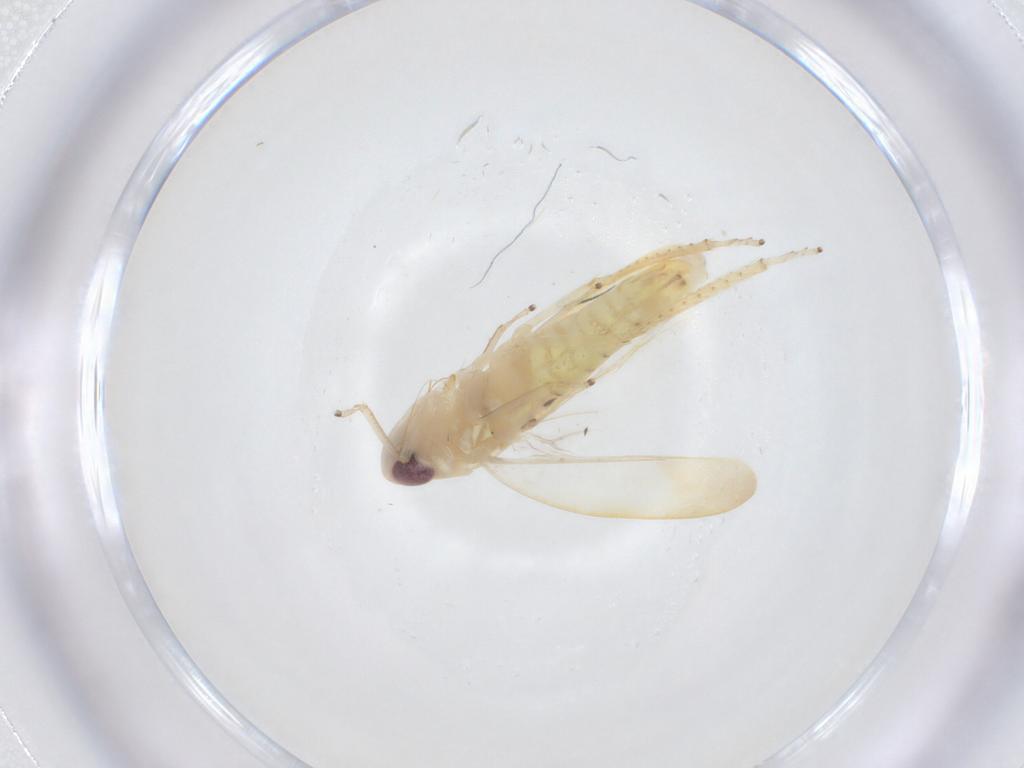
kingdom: Animalia
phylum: Arthropoda
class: Insecta
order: Hemiptera
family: Cicadellidae
